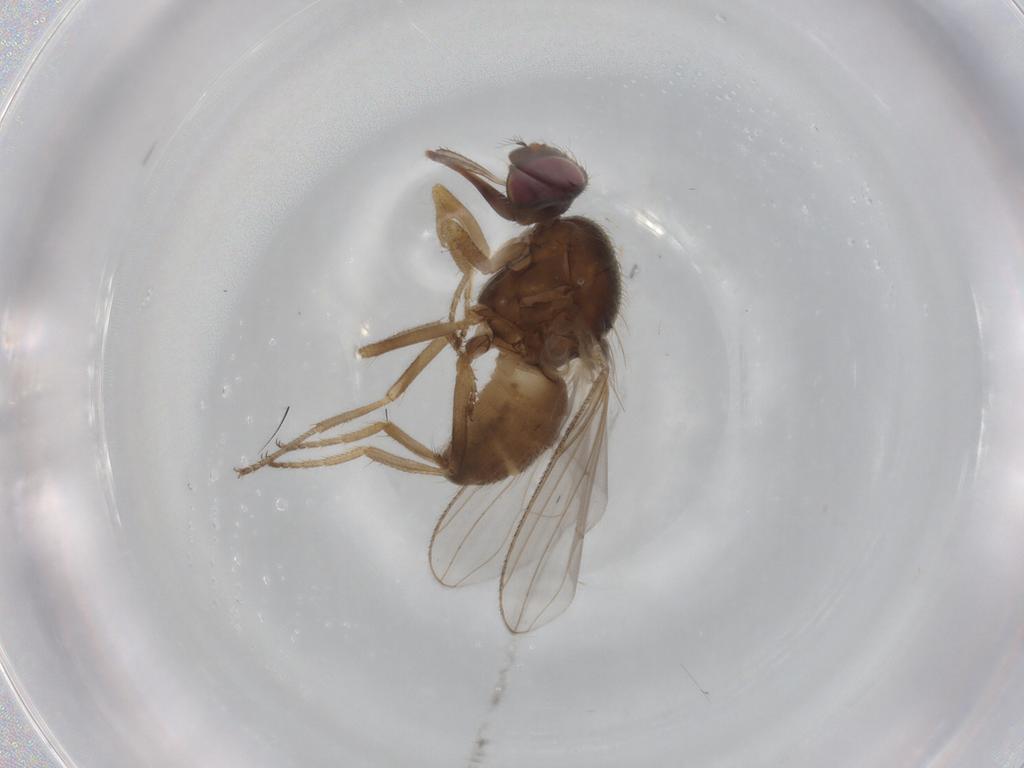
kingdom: Animalia
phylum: Arthropoda
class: Insecta
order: Diptera
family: Muscidae
